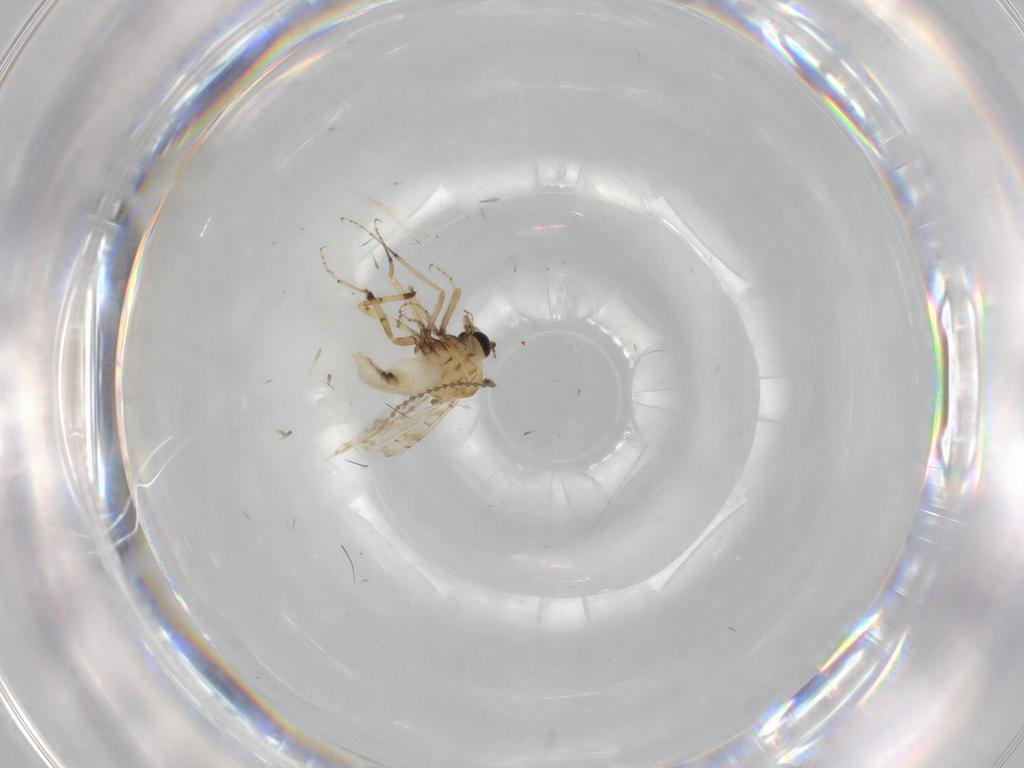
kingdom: Animalia
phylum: Arthropoda
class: Insecta
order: Diptera
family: Ceratopogonidae
